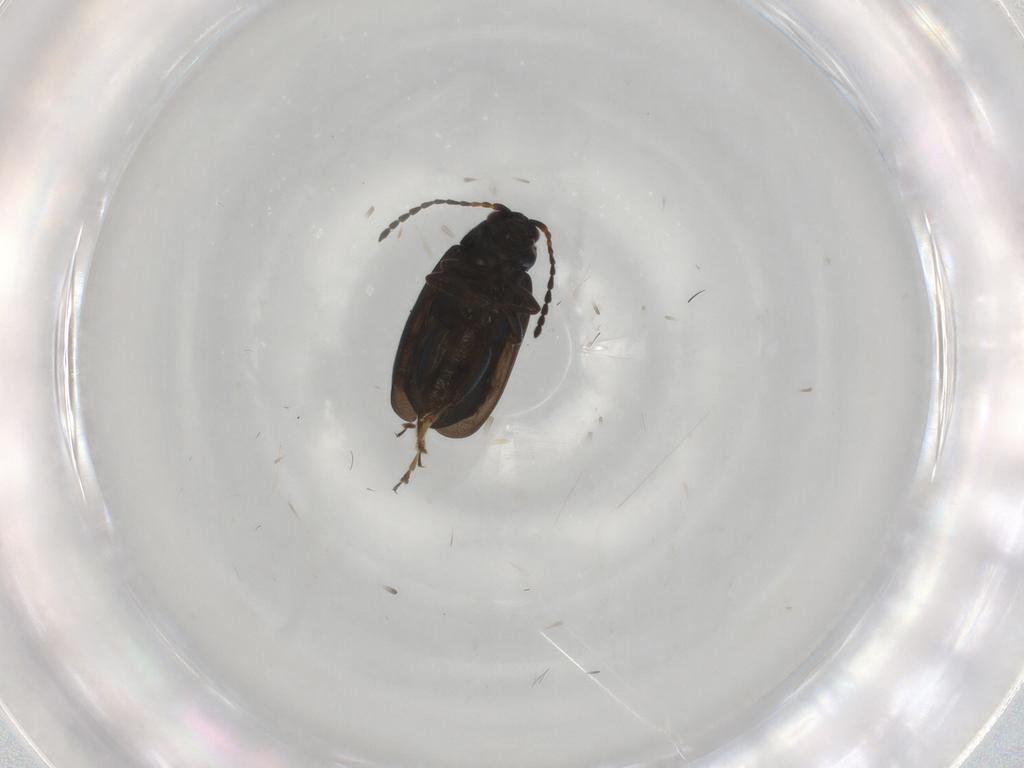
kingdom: Animalia
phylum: Arthropoda
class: Insecta
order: Coleoptera
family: Chrysomelidae
